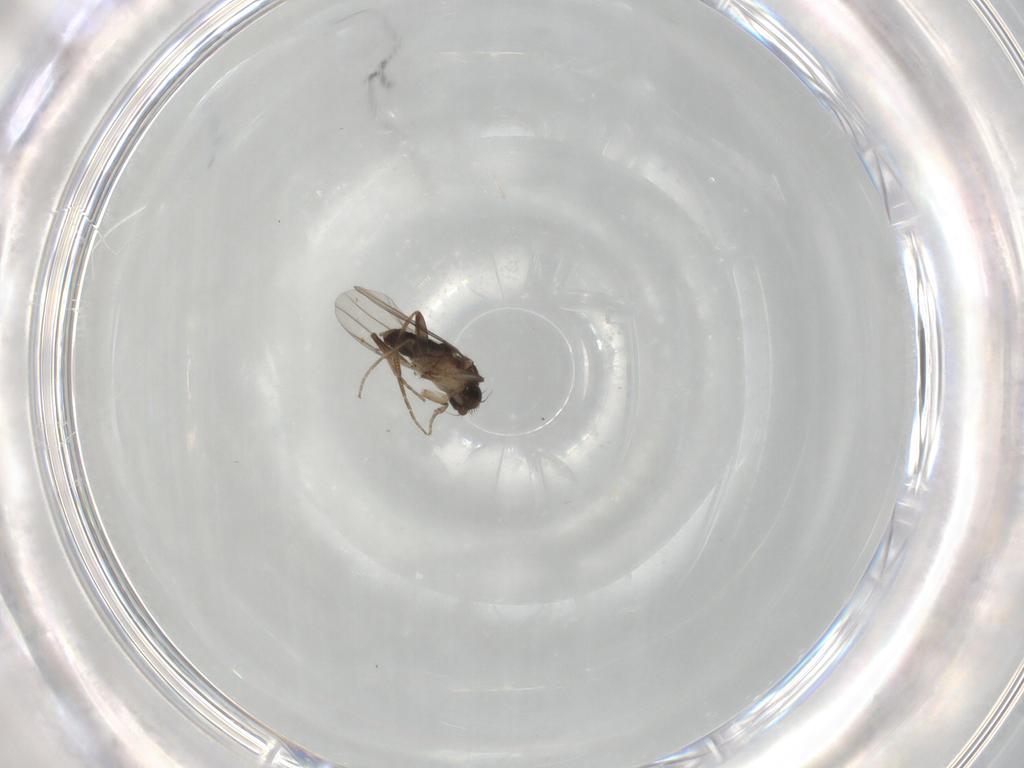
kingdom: Animalia
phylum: Arthropoda
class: Insecta
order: Diptera
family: Phoridae
